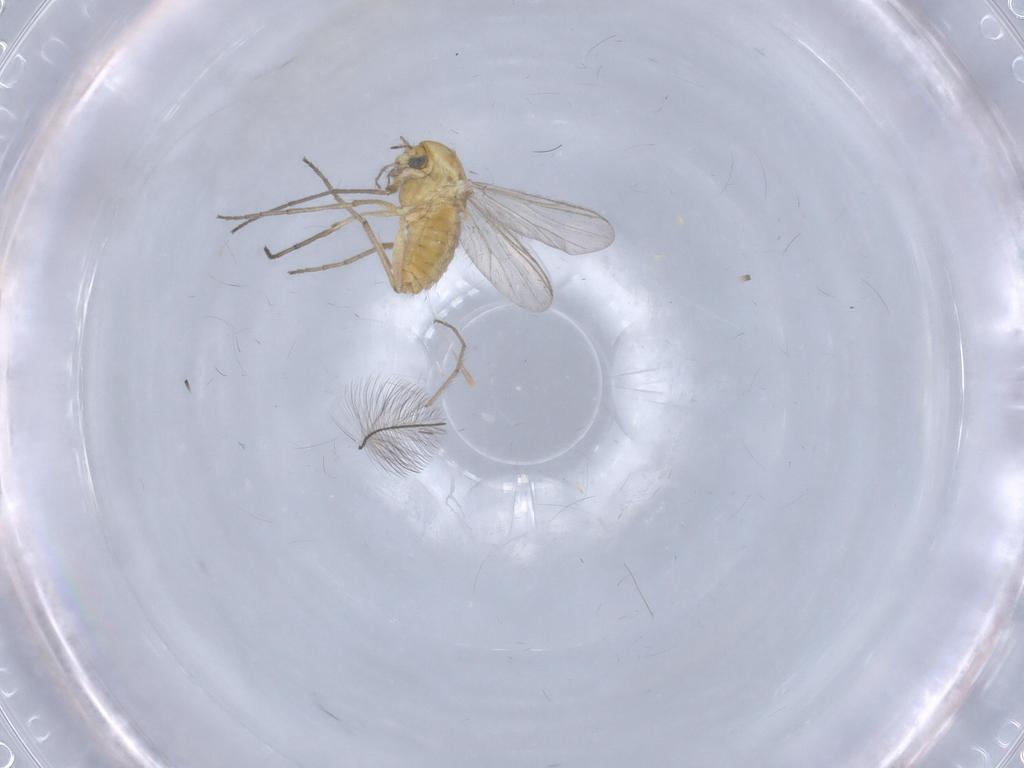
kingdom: Animalia
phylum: Arthropoda
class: Insecta
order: Diptera
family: Chironomidae
